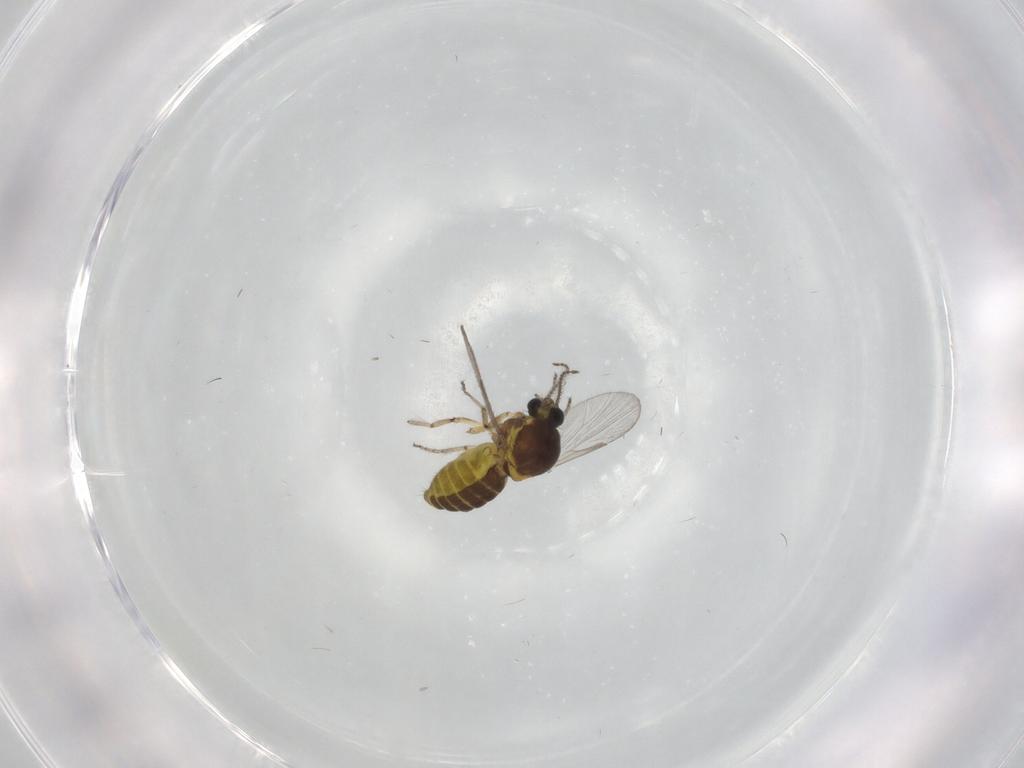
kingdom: Animalia
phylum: Arthropoda
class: Insecta
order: Diptera
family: Ceratopogonidae
